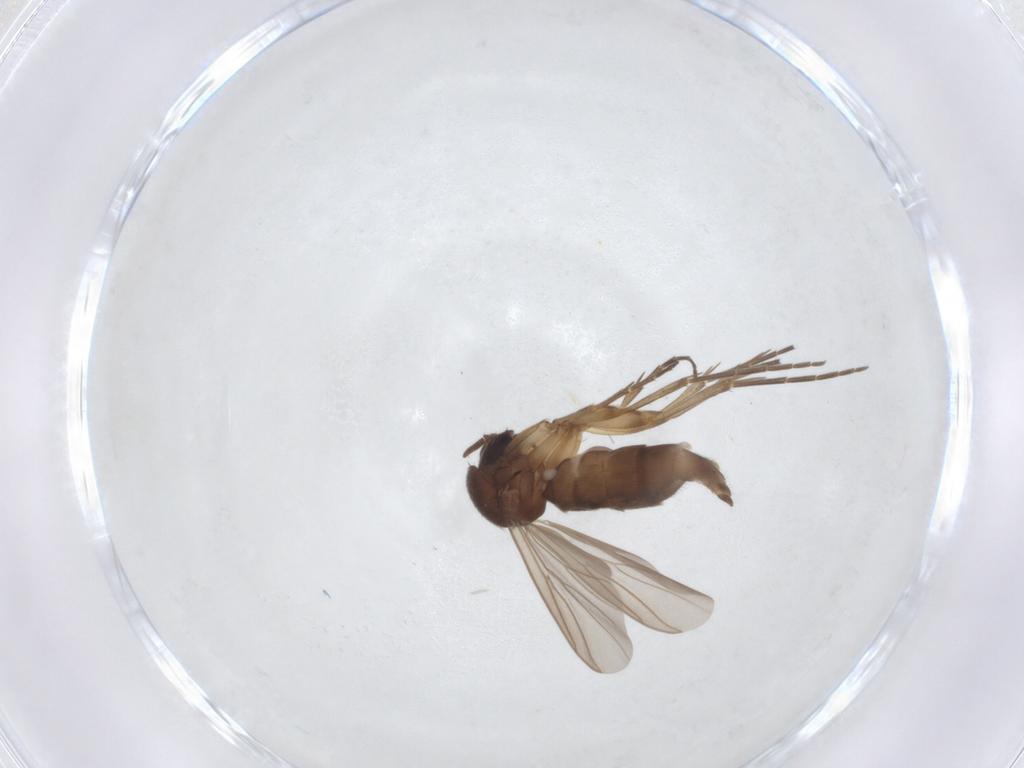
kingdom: Animalia
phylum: Arthropoda
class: Insecta
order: Diptera
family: Mycetophilidae
